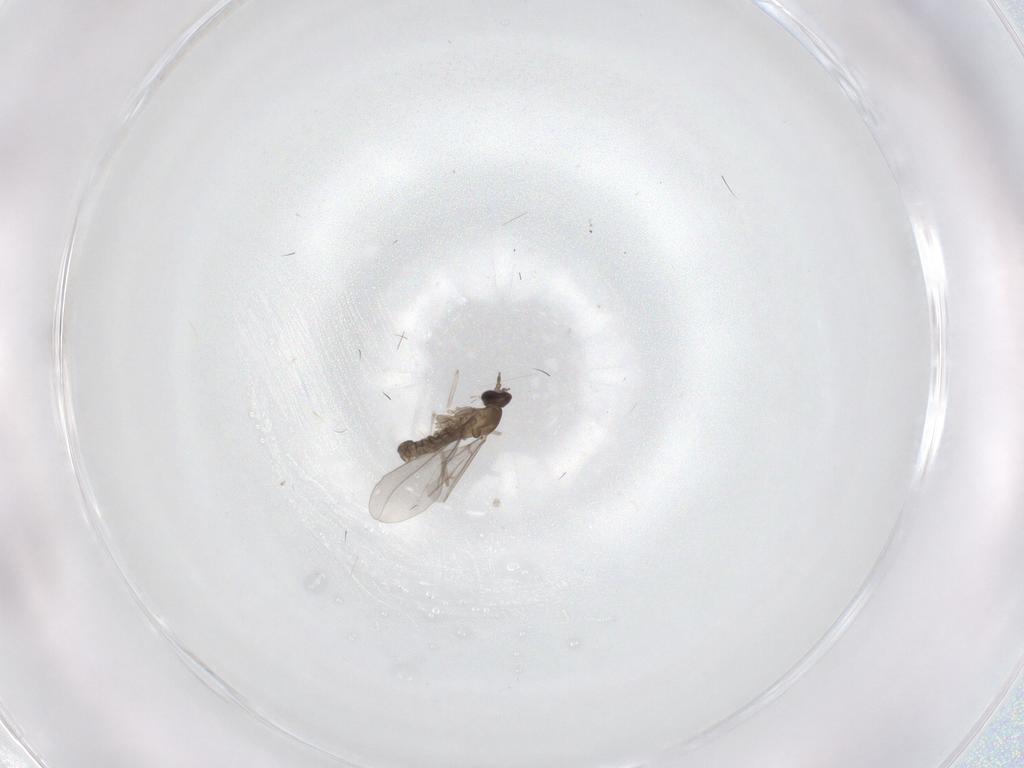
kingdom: Animalia
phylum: Arthropoda
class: Insecta
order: Diptera
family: Cecidomyiidae
